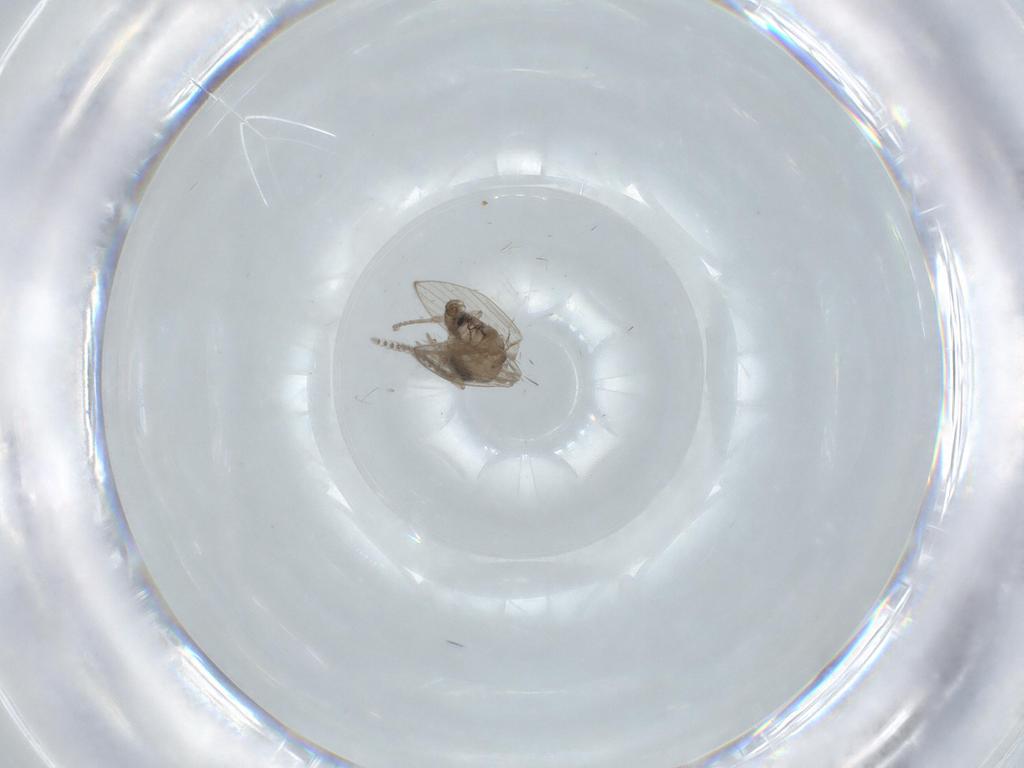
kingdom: Animalia
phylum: Arthropoda
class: Insecta
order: Diptera
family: Psychodidae
